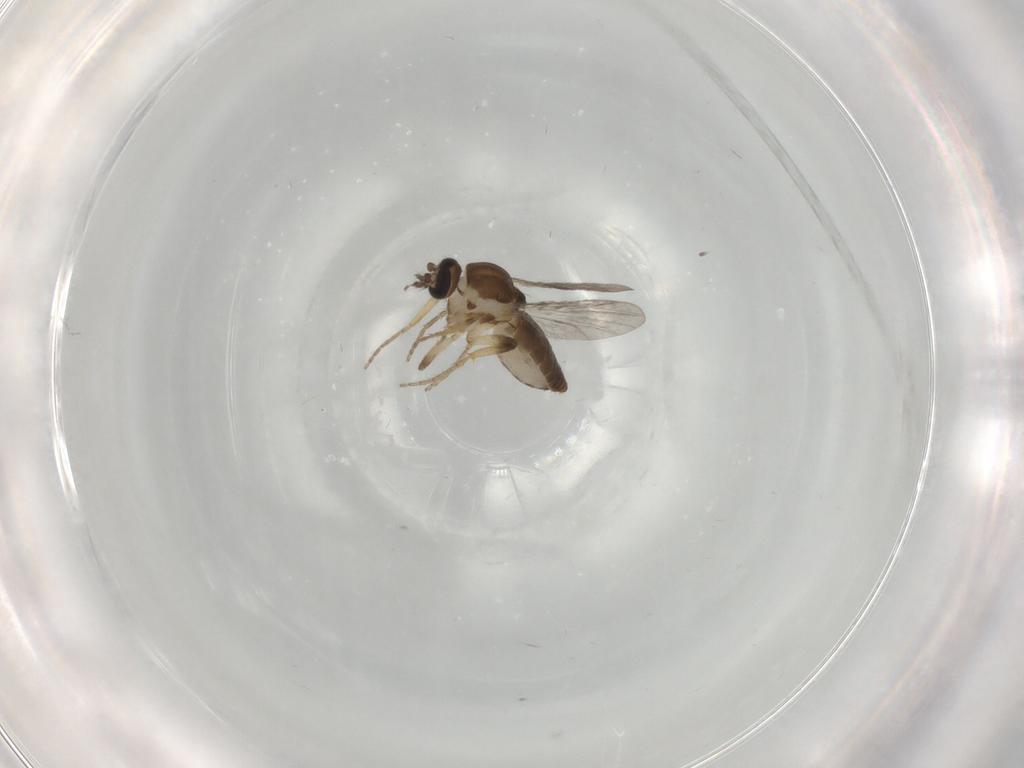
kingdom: Animalia
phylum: Arthropoda
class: Insecta
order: Diptera
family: Ceratopogonidae
